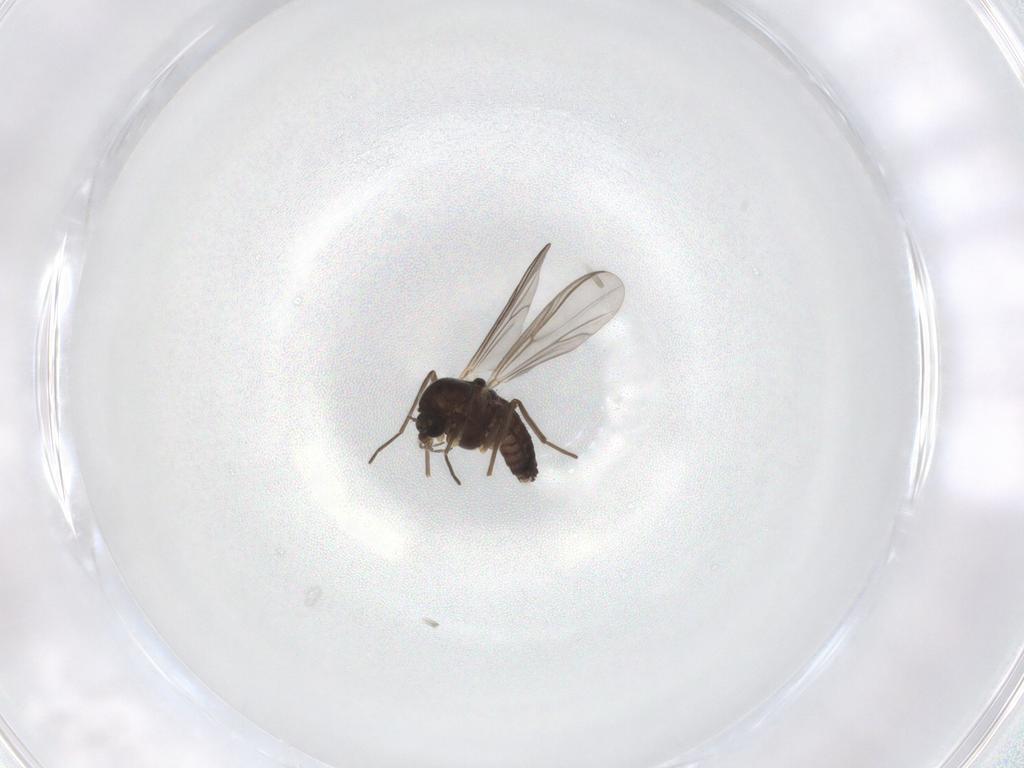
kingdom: Animalia
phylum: Arthropoda
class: Insecta
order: Diptera
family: Chironomidae
